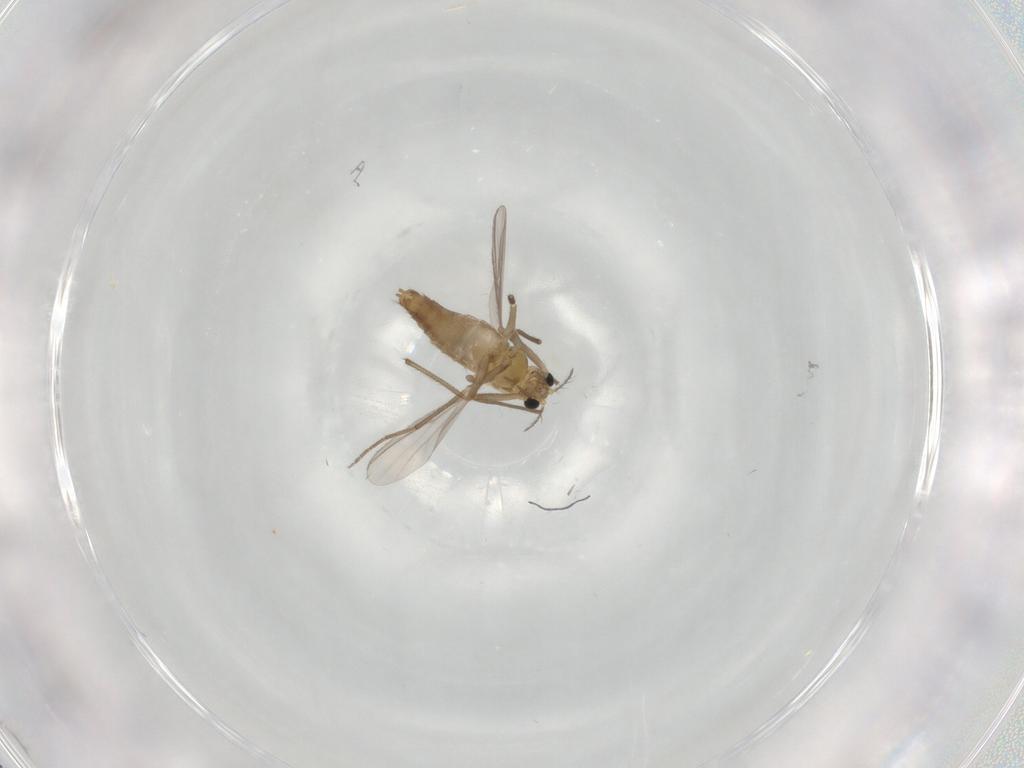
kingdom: Animalia
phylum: Arthropoda
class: Insecta
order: Diptera
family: Chironomidae
